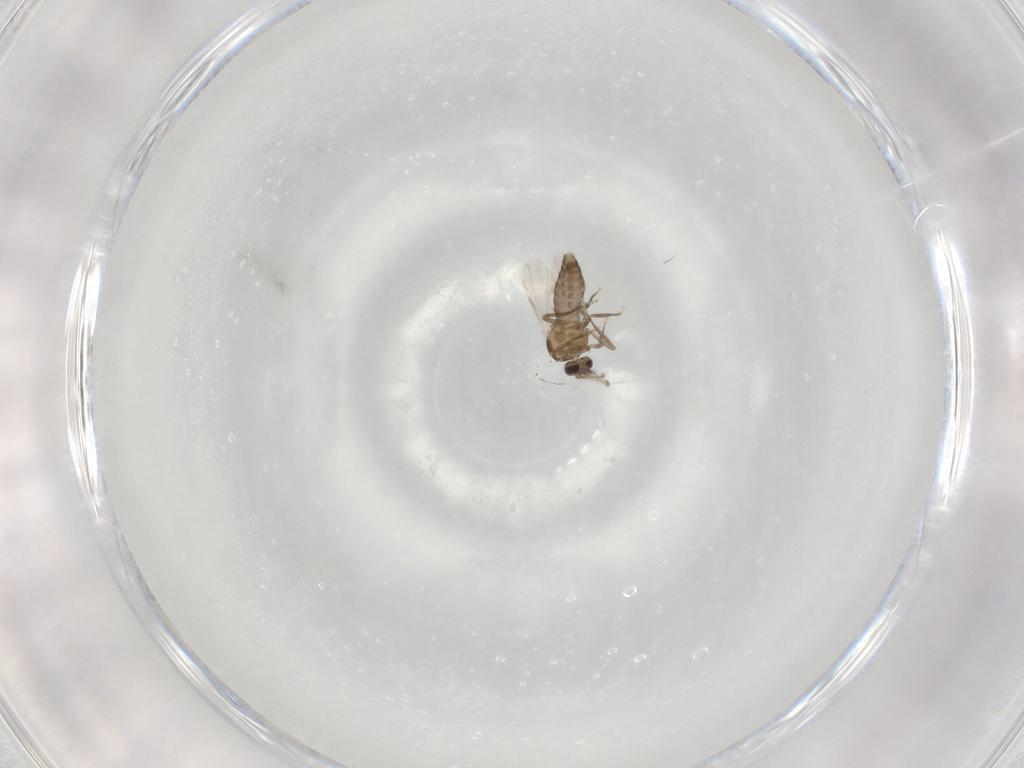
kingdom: Animalia
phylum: Arthropoda
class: Insecta
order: Diptera
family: Ceratopogonidae
